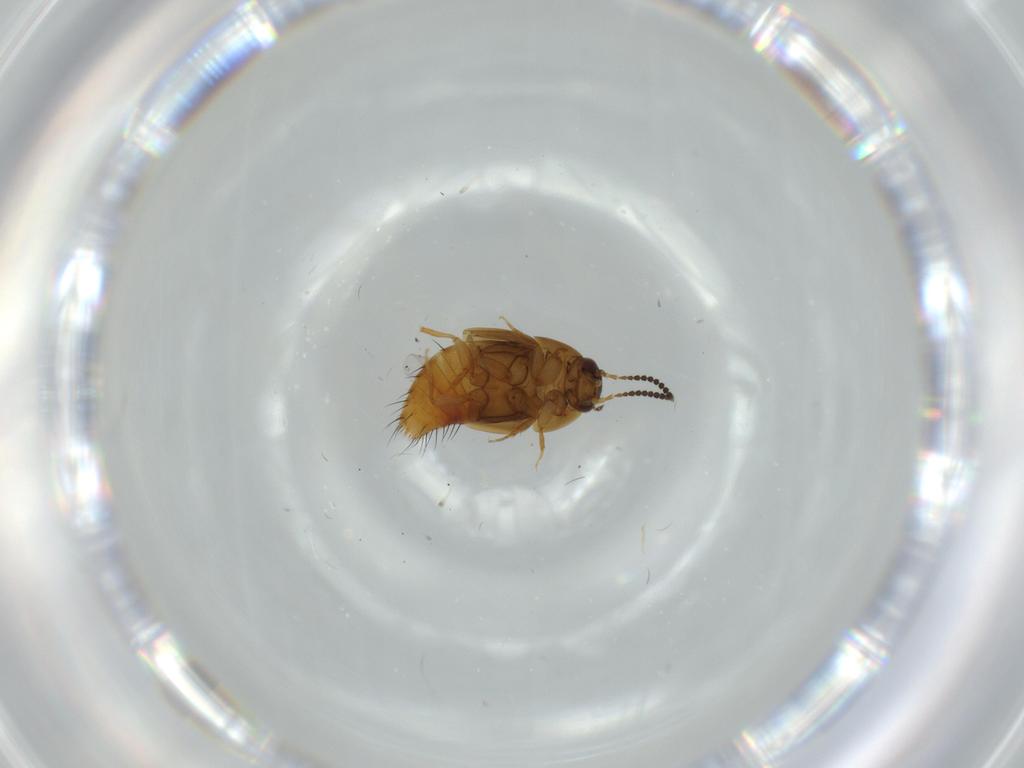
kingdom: Animalia
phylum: Arthropoda
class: Insecta
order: Coleoptera
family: Staphylinidae
